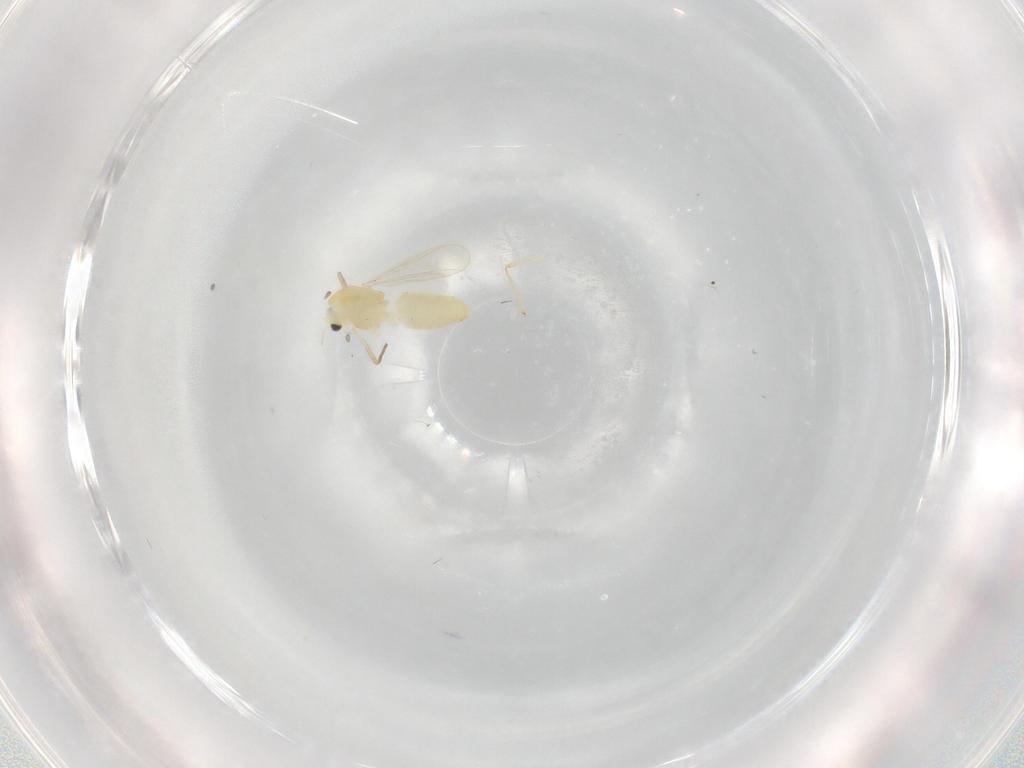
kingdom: Animalia
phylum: Arthropoda
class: Insecta
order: Diptera
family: Chironomidae
